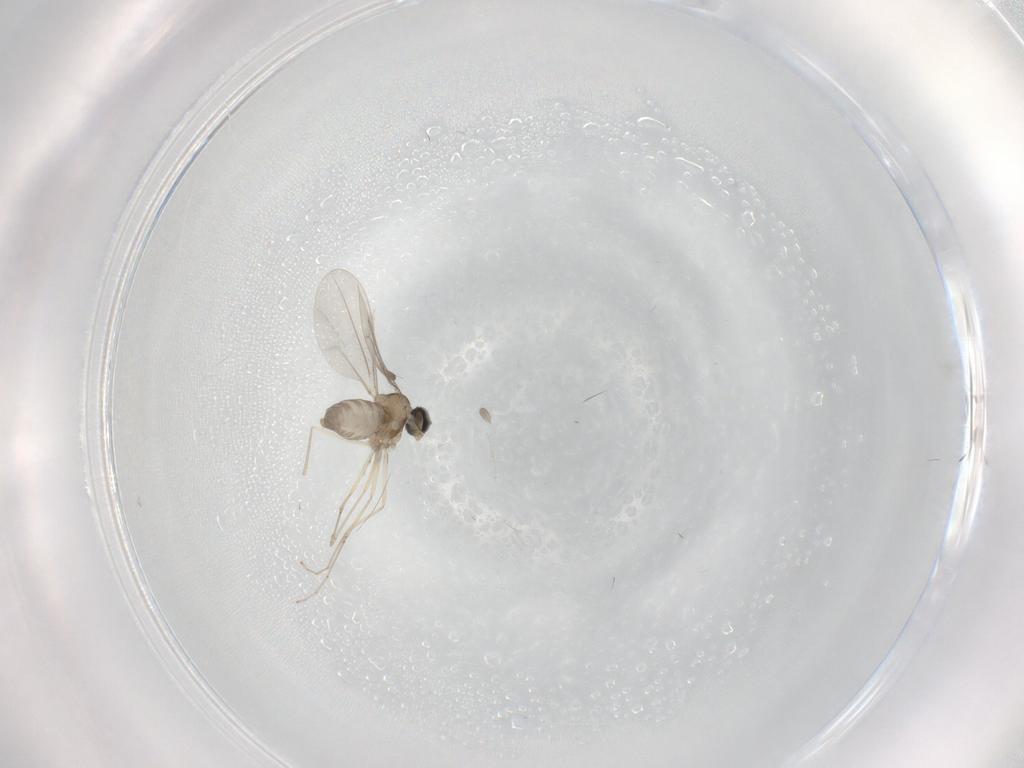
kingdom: Animalia
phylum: Arthropoda
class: Insecta
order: Diptera
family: Cecidomyiidae
